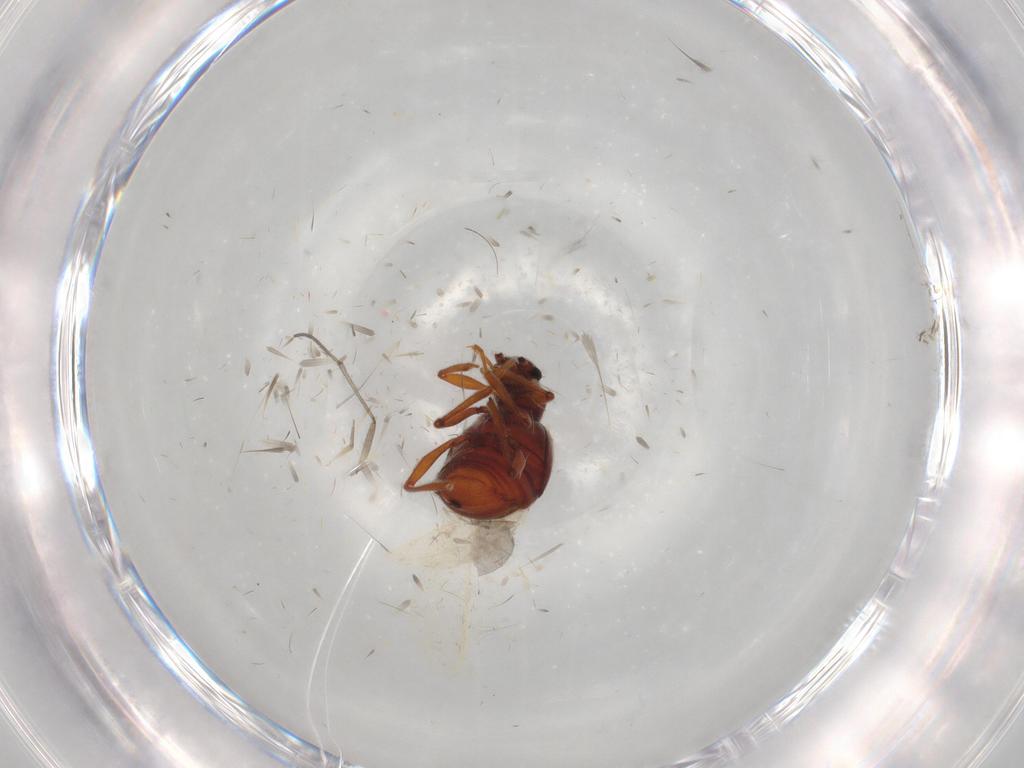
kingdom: Animalia
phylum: Arthropoda
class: Insecta
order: Coleoptera
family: Staphylinidae
